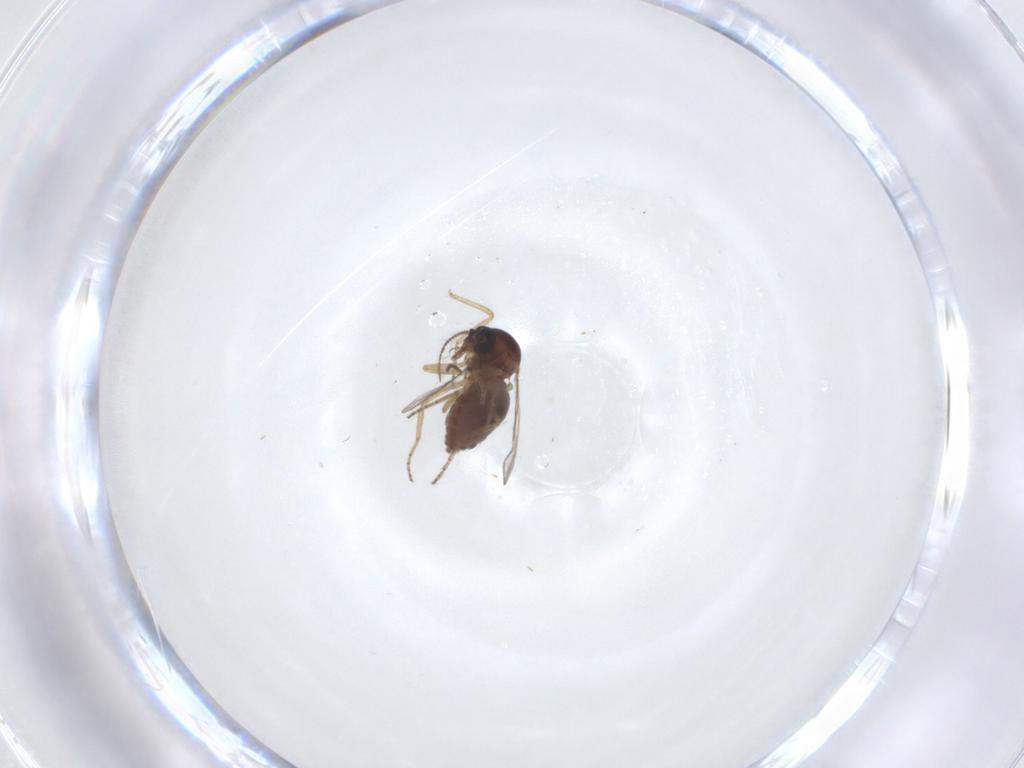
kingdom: Animalia
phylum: Arthropoda
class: Insecta
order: Diptera
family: Ceratopogonidae
